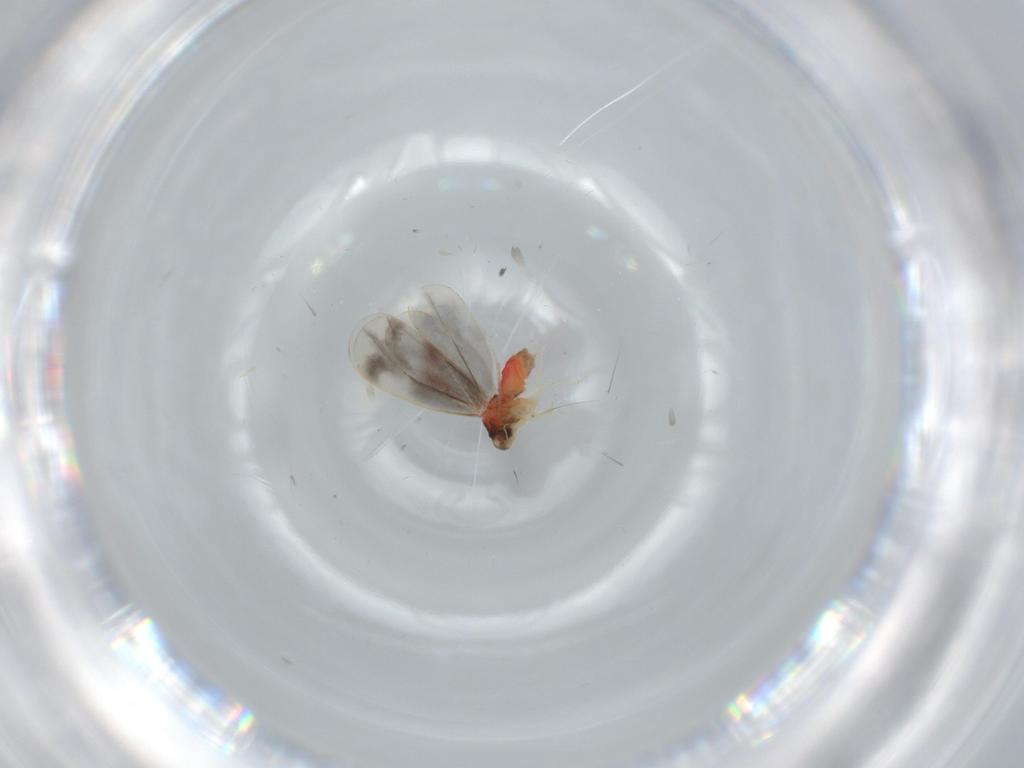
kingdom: Animalia
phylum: Arthropoda
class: Insecta
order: Hemiptera
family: Aleyrodidae
